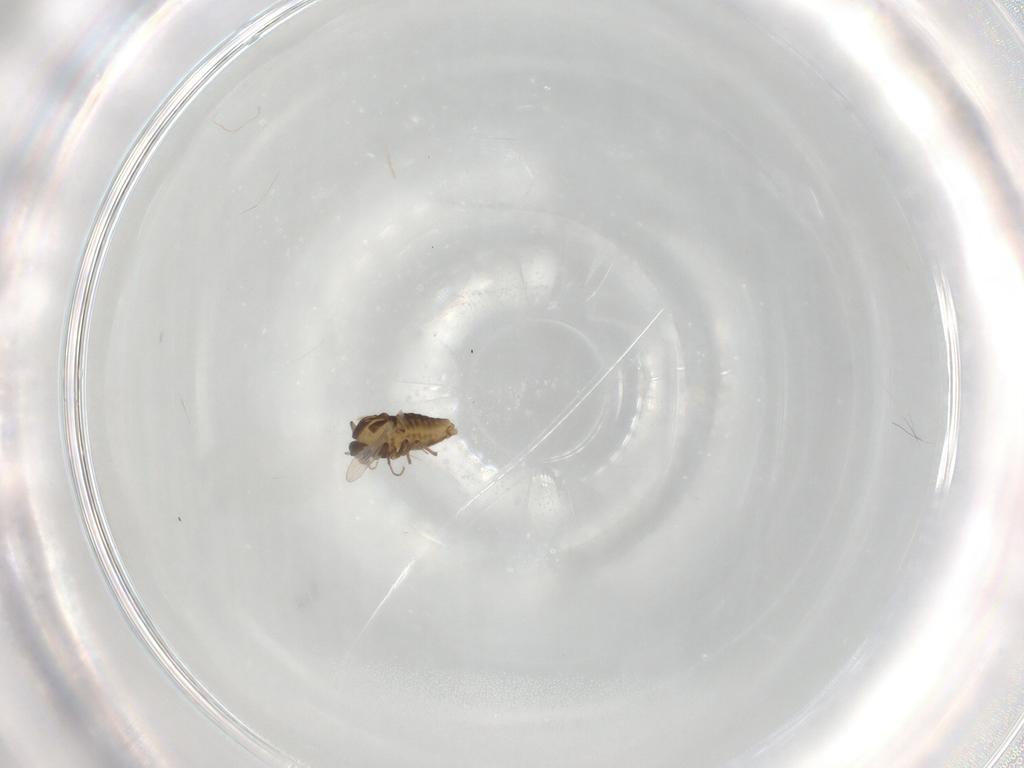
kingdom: Animalia
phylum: Arthropoda
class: Insecta
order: Diptera
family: Chironomidae
